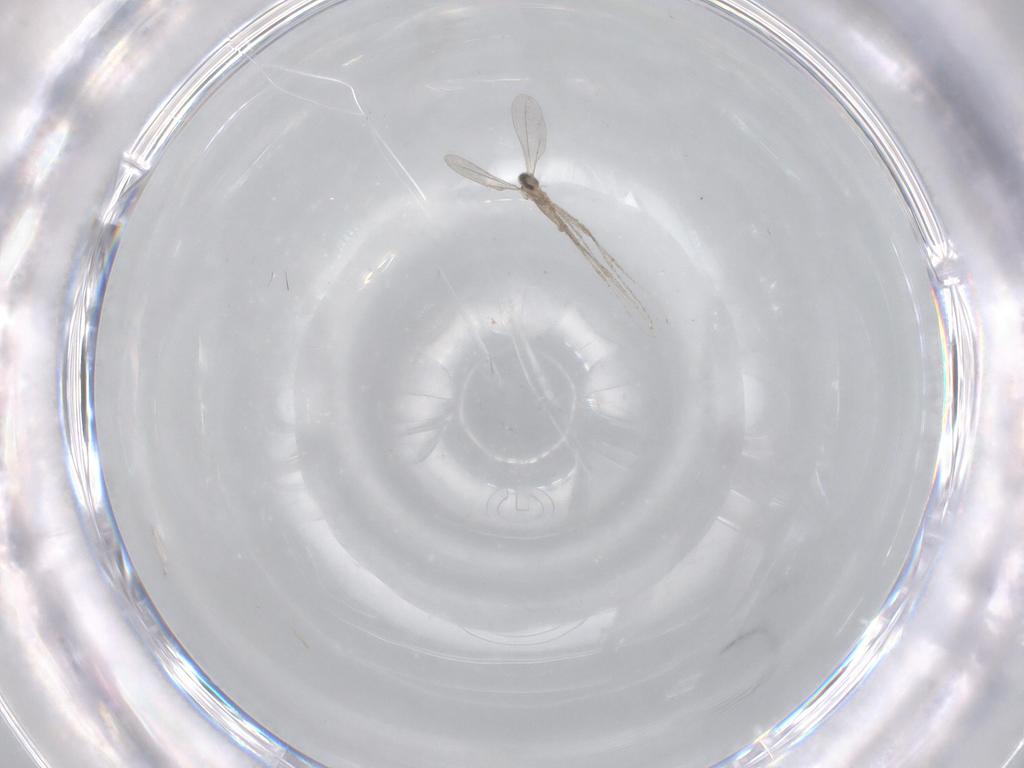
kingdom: Animalia
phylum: Arthropoda
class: Insecta
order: Diptera
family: Cecidomyiidae
